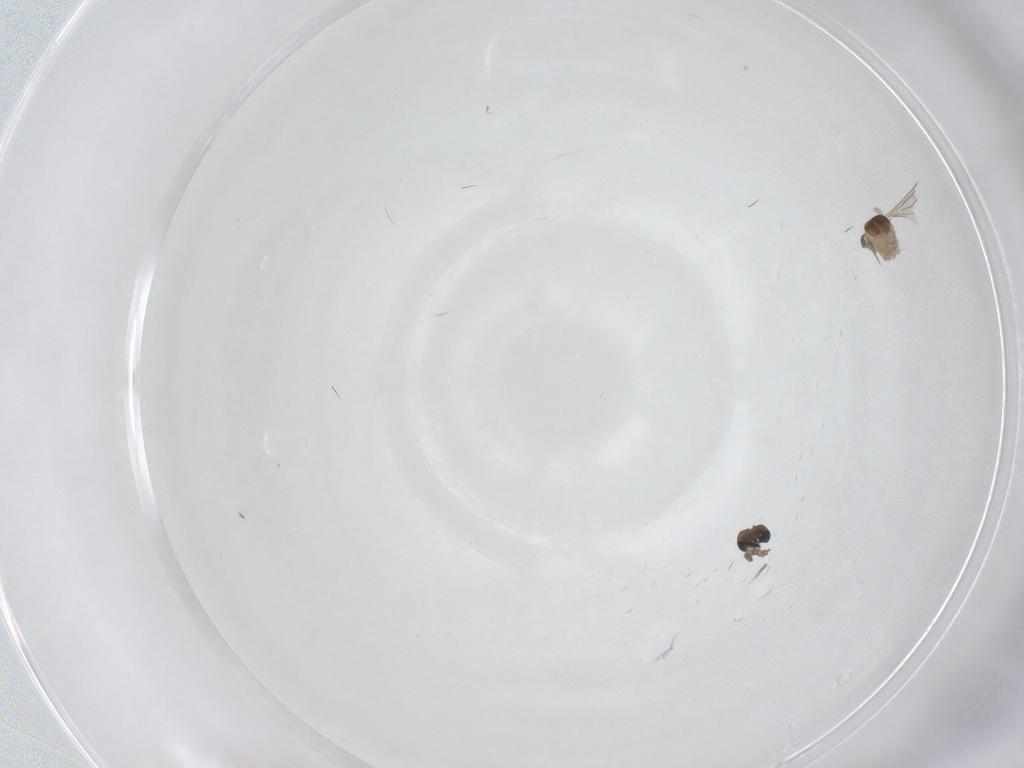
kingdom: Animalia
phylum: Arthropoda
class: Insecta
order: Diptera
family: Cecidomyiidae
